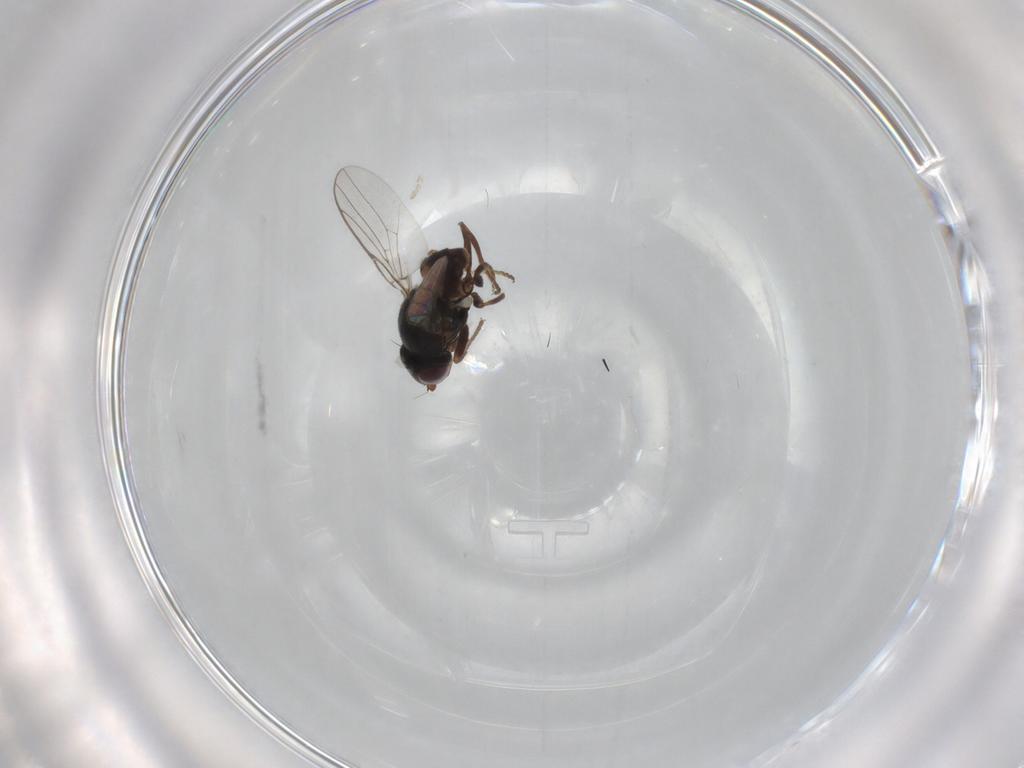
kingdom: Animalia
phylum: Arthropoda
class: Insecta
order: Diptera
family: Chloropidae
